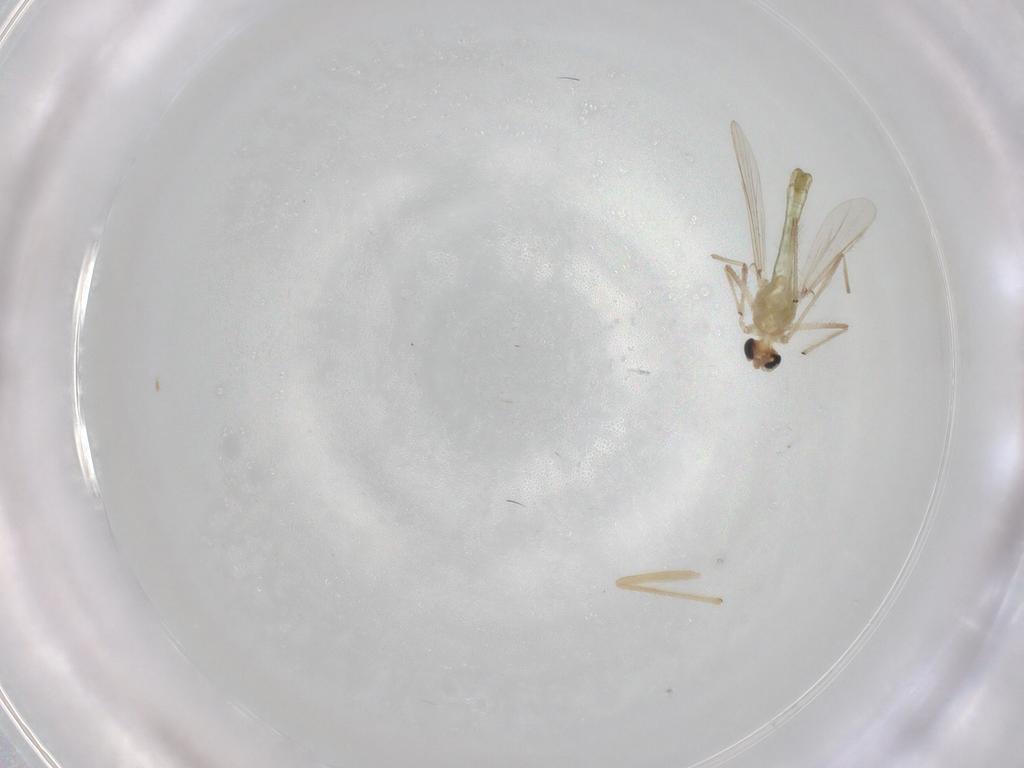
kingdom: Animalia
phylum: Arthropoda
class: Insecta
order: Diptera
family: Chironomidae
